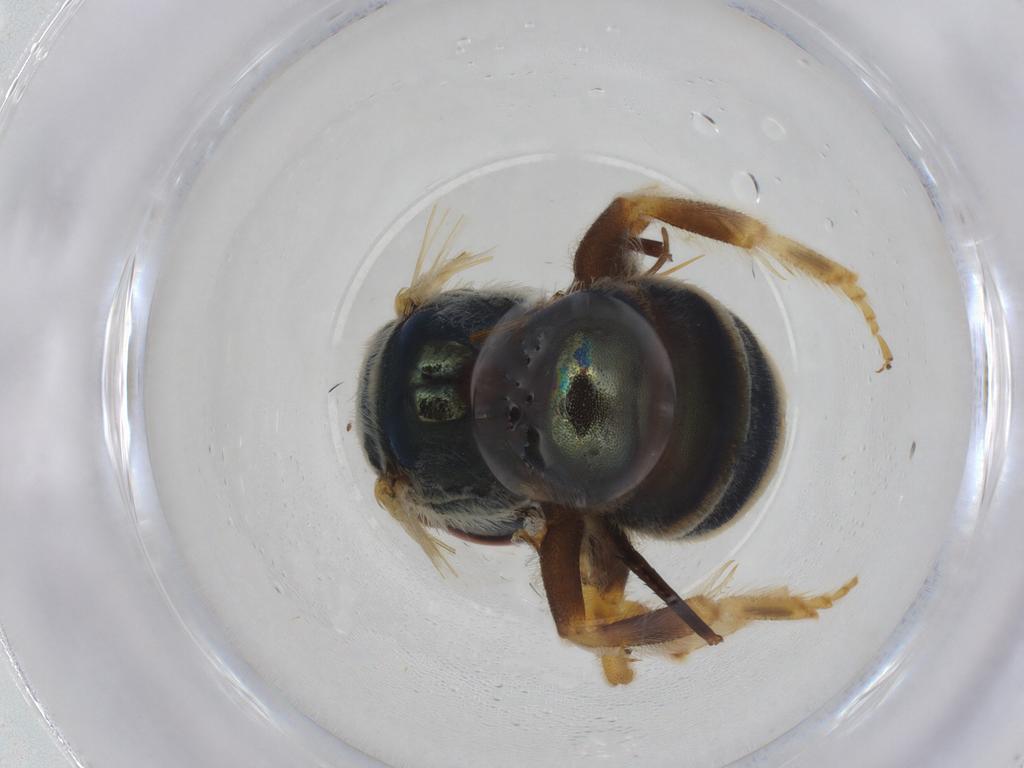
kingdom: Animalia
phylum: Arthropoda
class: Insecta
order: Hymenoptera
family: Halictidae
